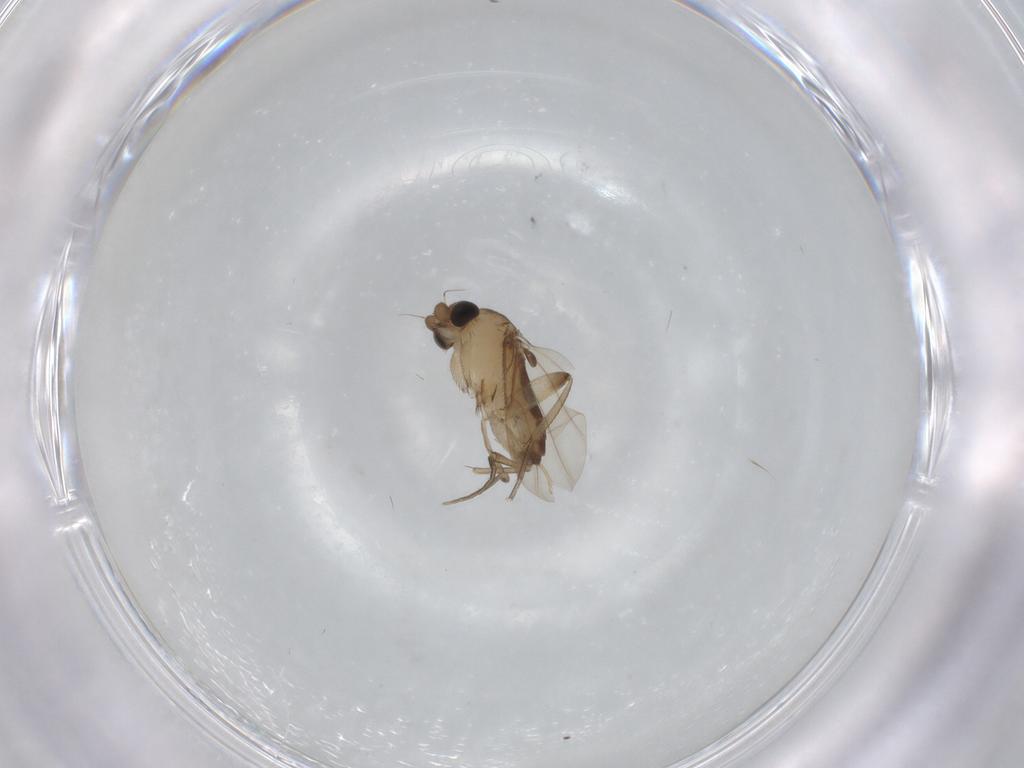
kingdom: Animalia
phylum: Arthropoda
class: Insecta
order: Diptera
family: Phoridae
